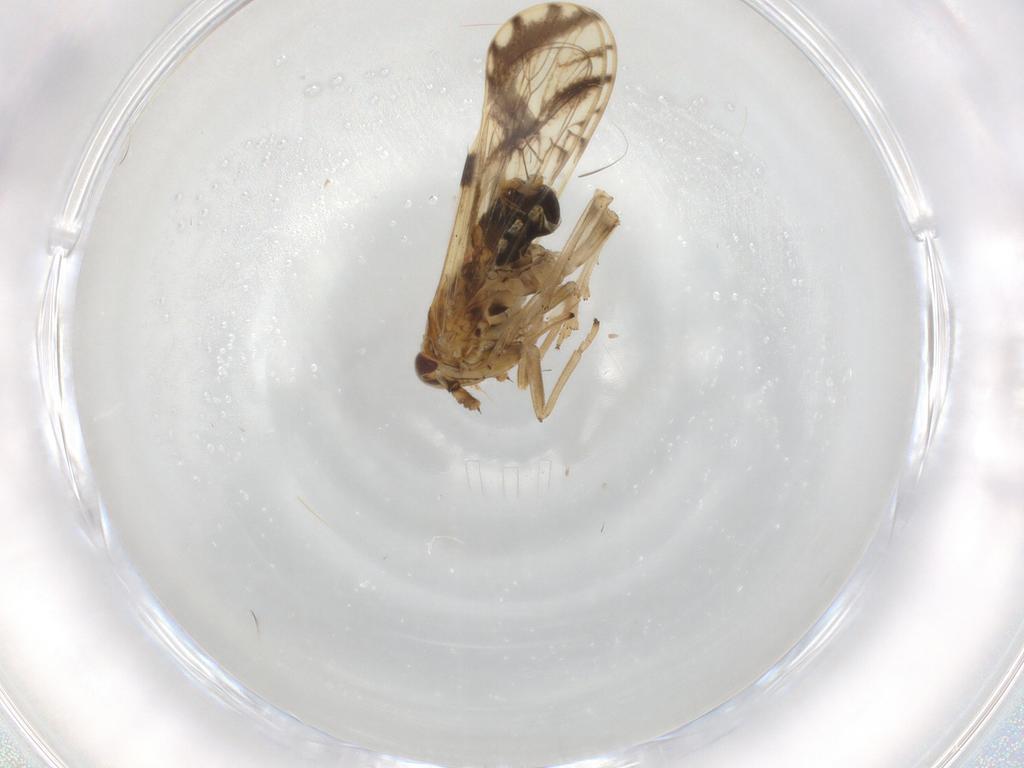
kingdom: Animalia
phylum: Arthropoda
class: Insecta
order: Hemiptera
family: Delphacidae
